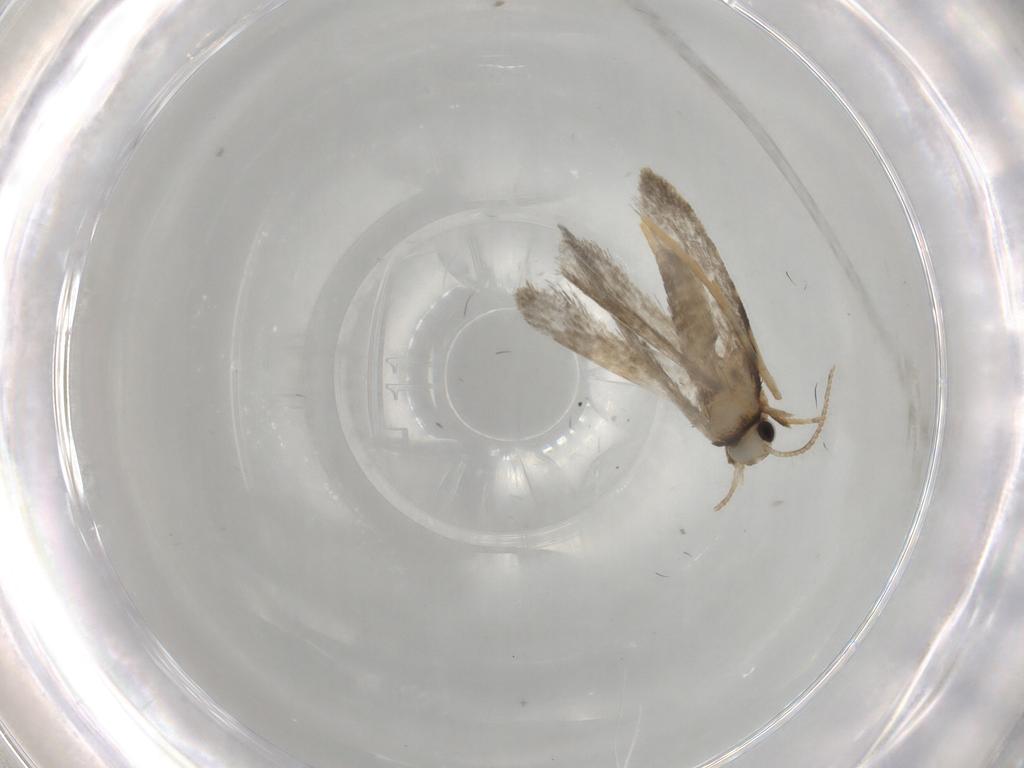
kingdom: Animalia
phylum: Arthropoda
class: Insecta
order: Lepidoptera
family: Psychidae
